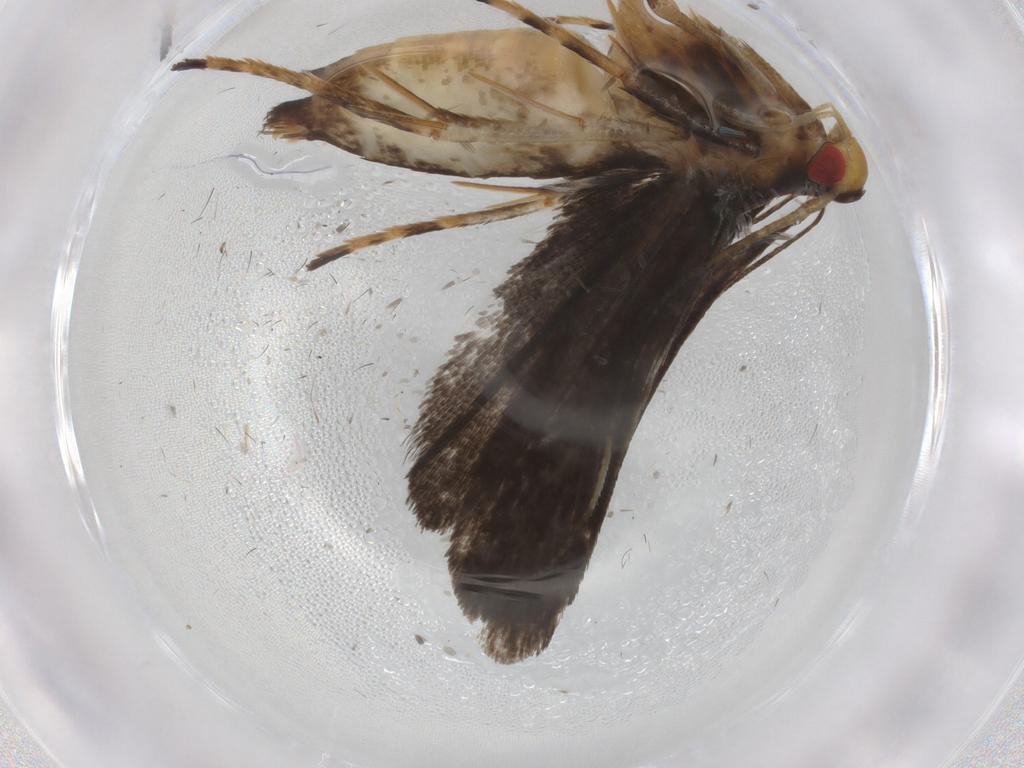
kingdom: Animalia
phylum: Arthropoda
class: Insecta
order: Lepidoptera
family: Gelechiidae
